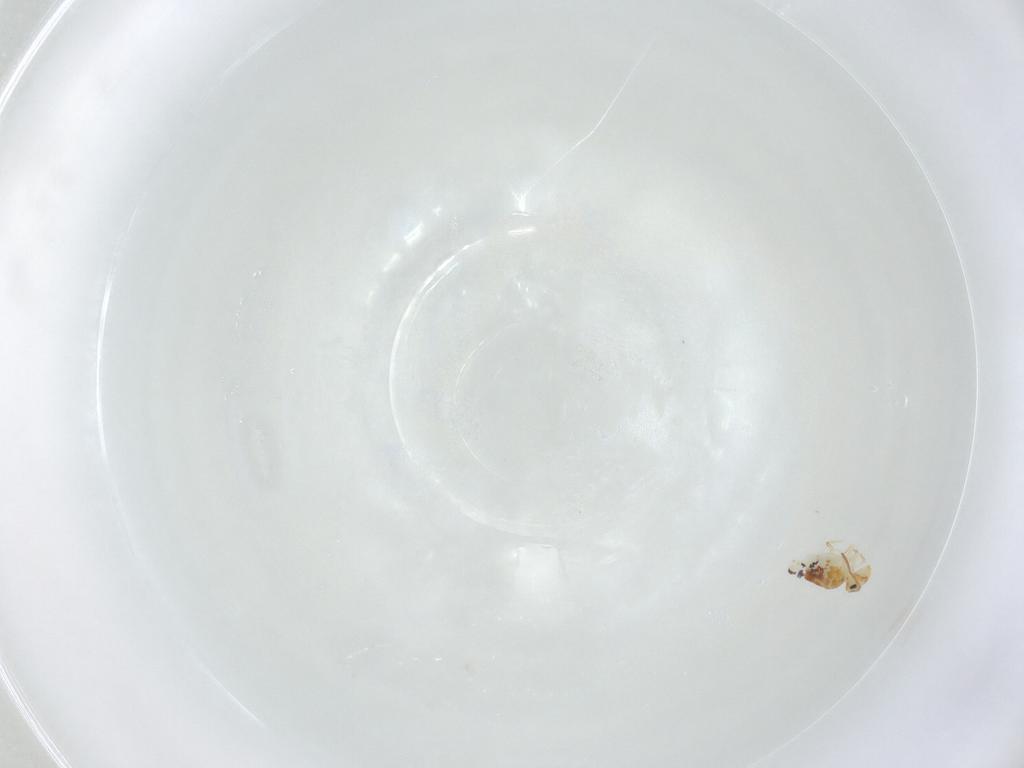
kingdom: Animalia
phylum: Arthropoda
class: Collembola
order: Symphypleona
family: Bourletiellidae
